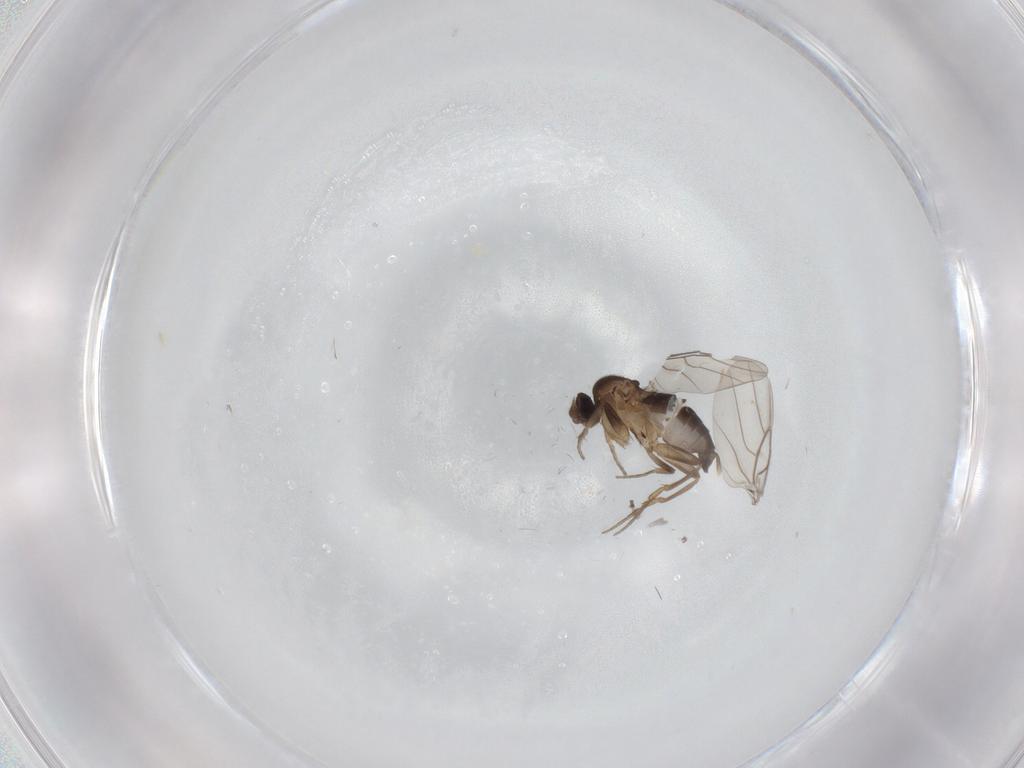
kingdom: Animalia
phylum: Arthropoda
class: Insecta
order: Diptera
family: Phoridae
